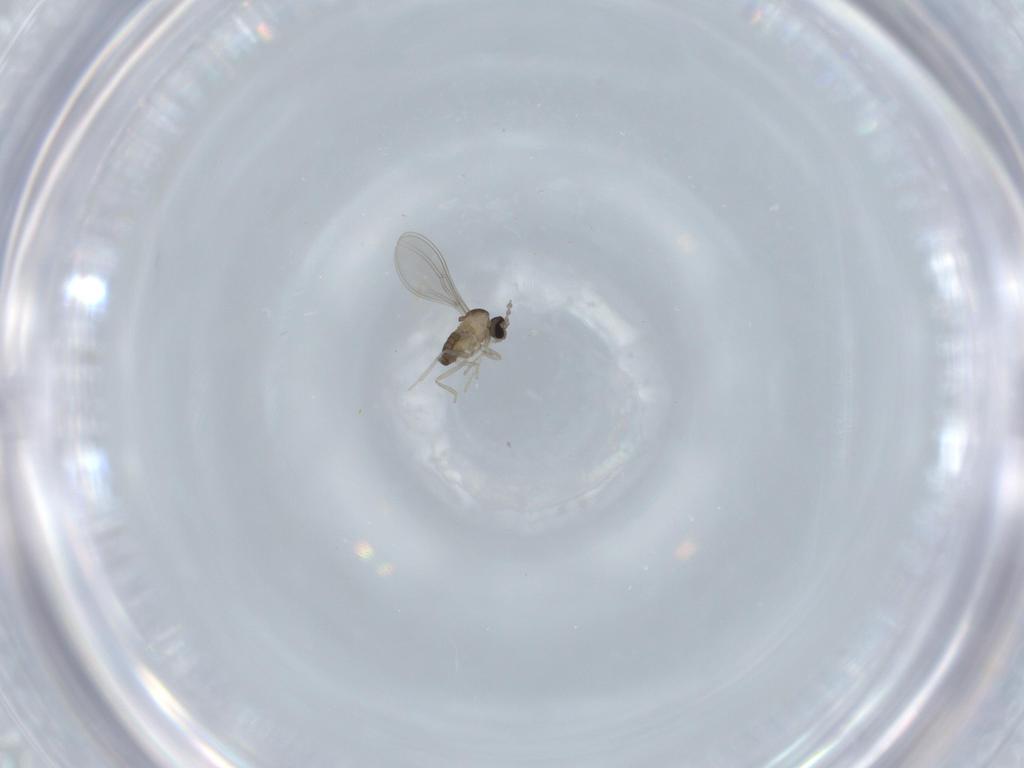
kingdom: Animalia
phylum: Arthropoda
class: Insecta
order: Diptera
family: Cecidomyiidae
